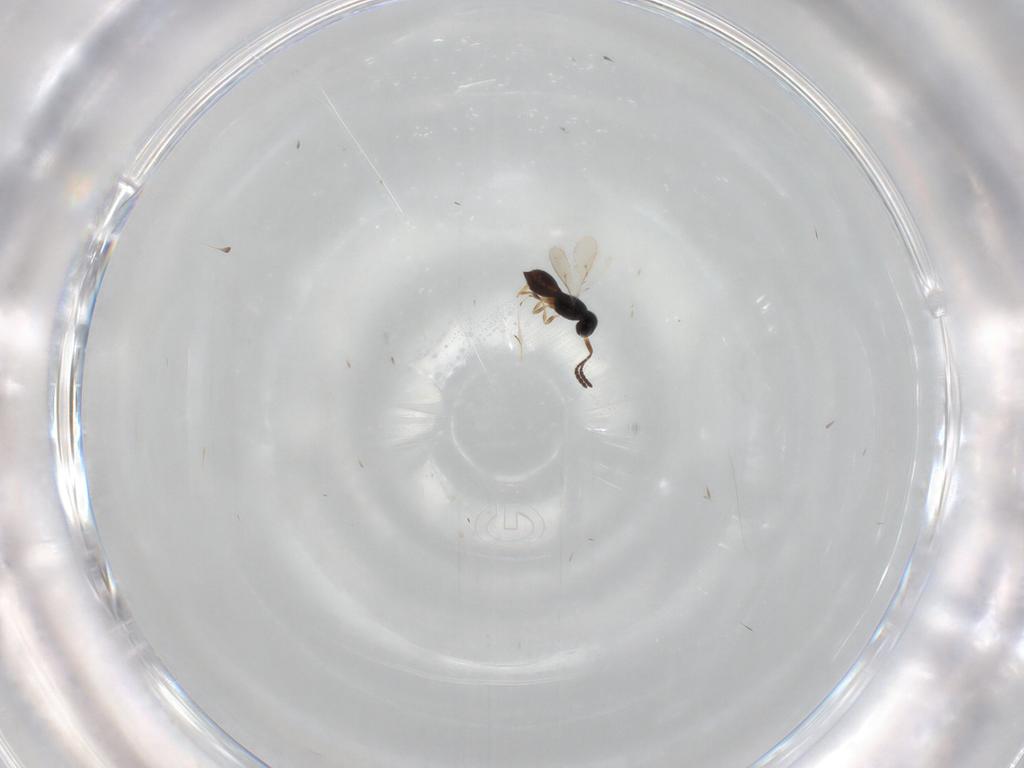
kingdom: Animalia
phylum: Arthropoda
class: Insecta
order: Hymenoptera
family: Scelionidae
